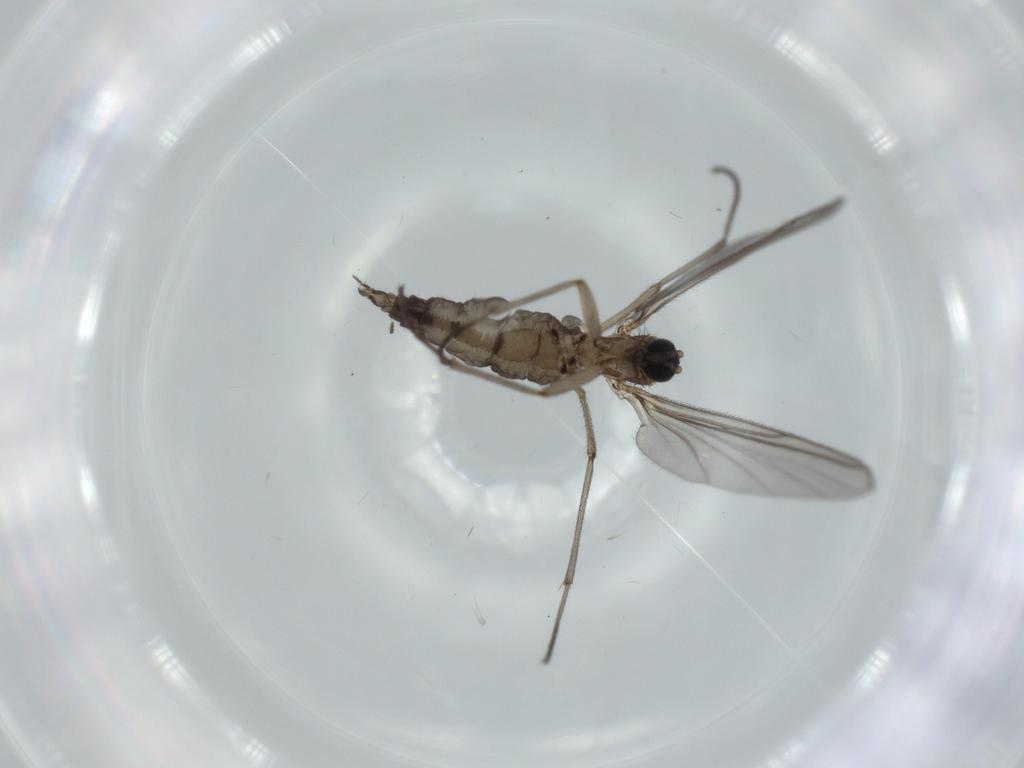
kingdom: Animalia
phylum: Arthropoda
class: Insecta
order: Diptera
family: Sciaridae
